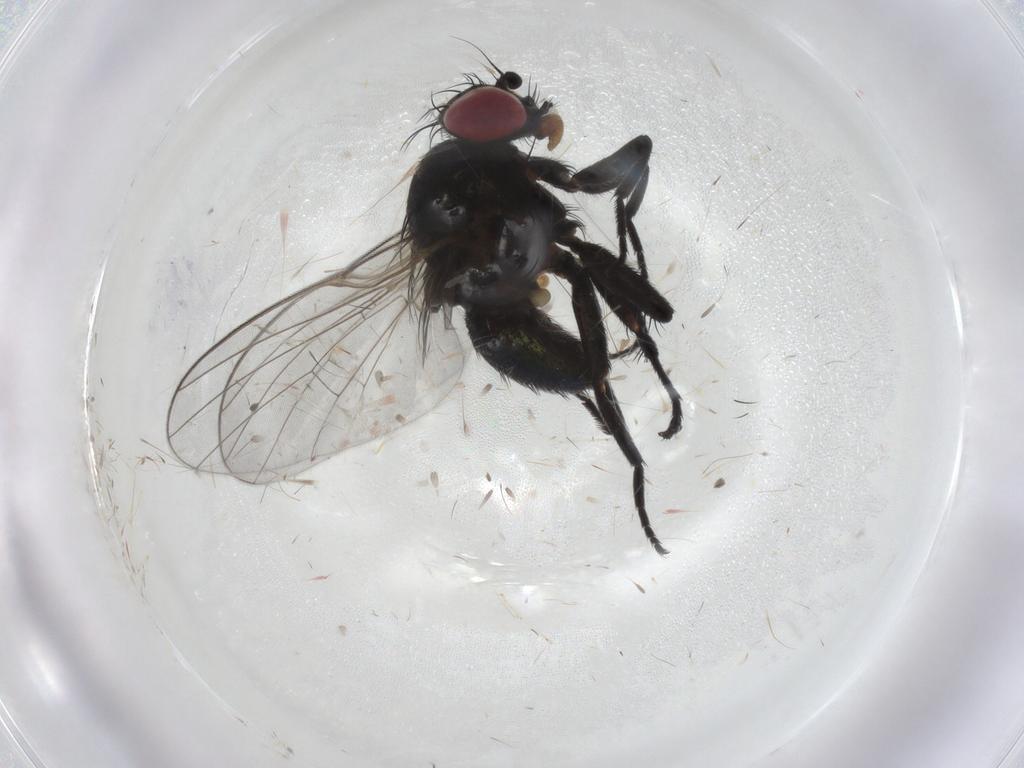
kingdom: Animalia
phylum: Arthropoda
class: Insecta
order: Diptera
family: Agromyzidae
